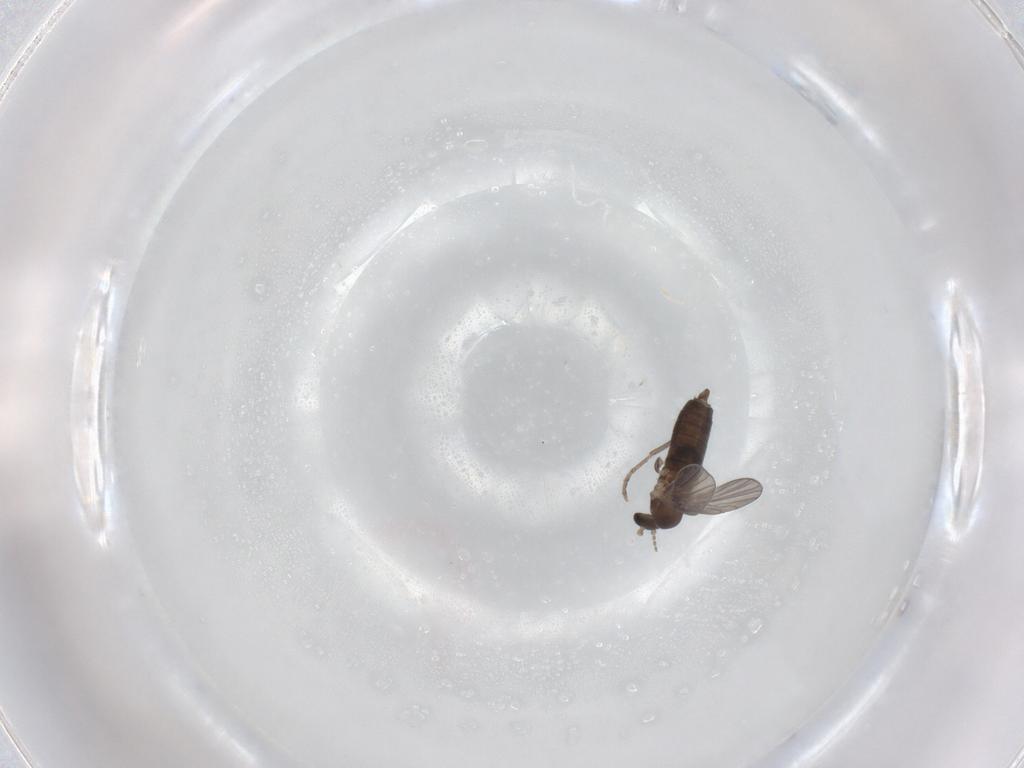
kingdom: Animalia
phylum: Arthropoda
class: Insecta
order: Diptera
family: Psychodidae
